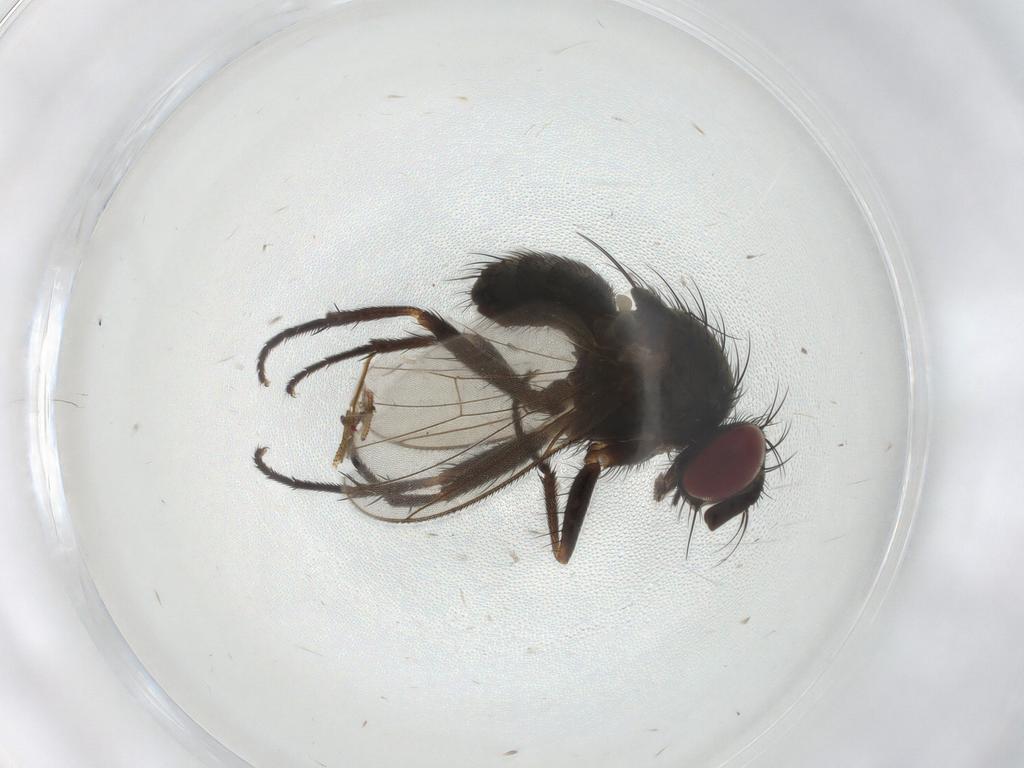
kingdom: Animalia
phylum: Arthropoda
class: Insecta
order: Diptera
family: Muscidae
